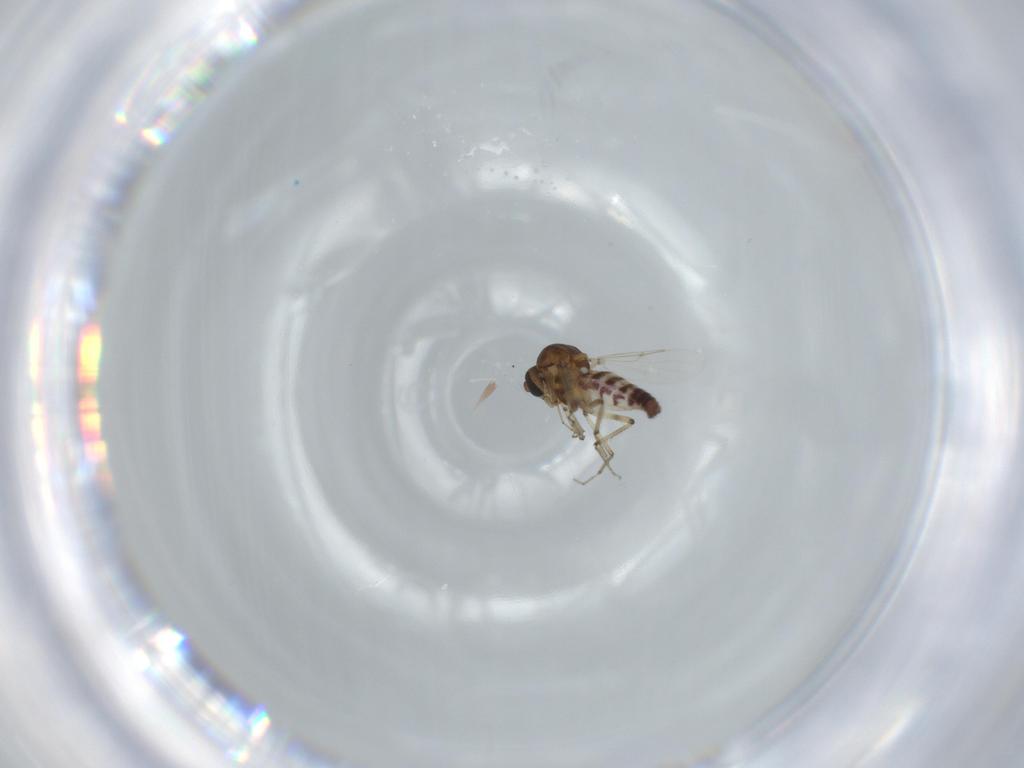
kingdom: Animalia
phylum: Arthropoda
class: Insecta
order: Diptera
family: Ceratopogonidae
